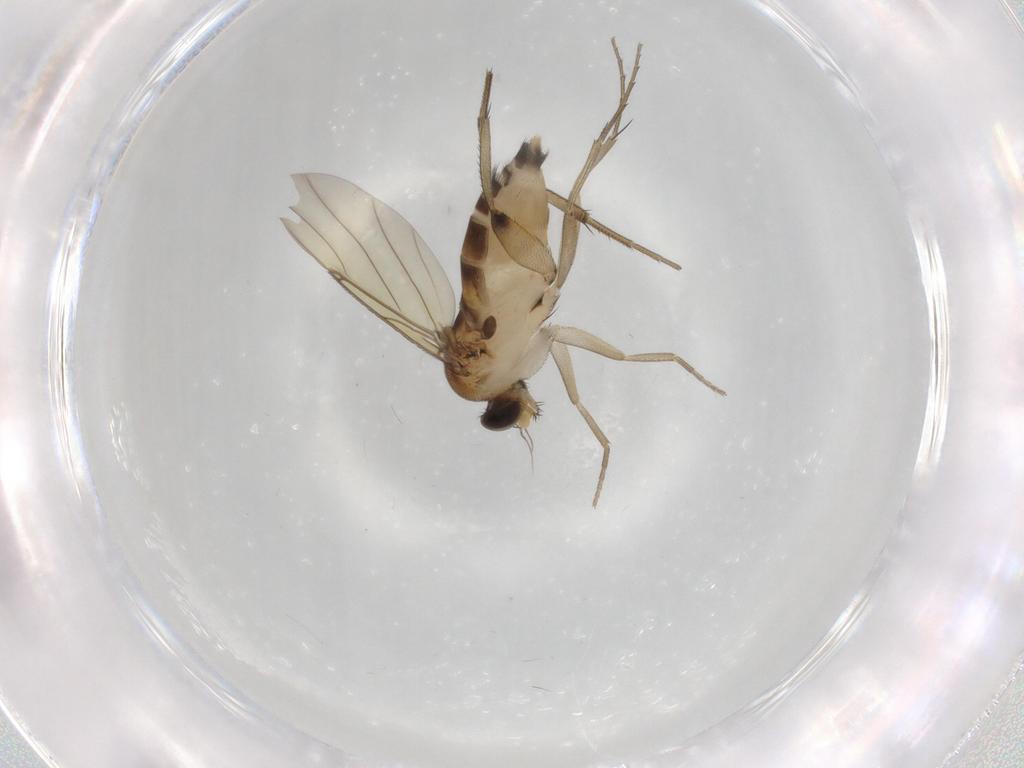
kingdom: Animalia
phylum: Arthropoda
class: Insecta
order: Diptera
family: Phoridae
